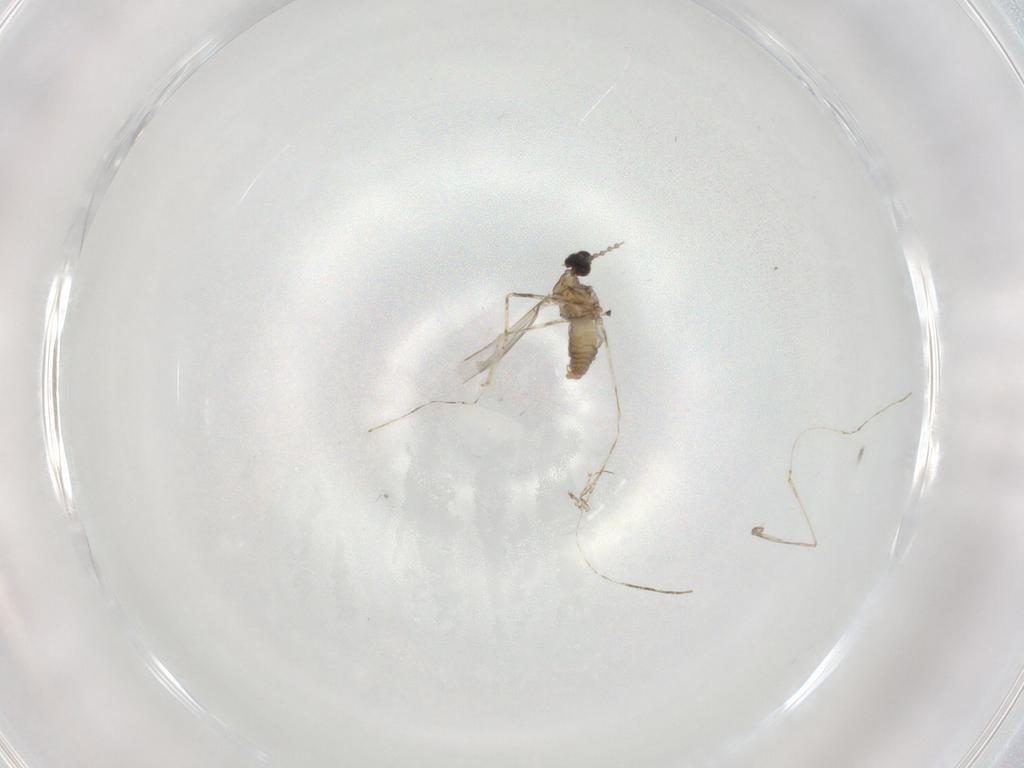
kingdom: Animalia
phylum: Arthropoda
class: Insecta
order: Diptera
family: Cecidomyiidae
